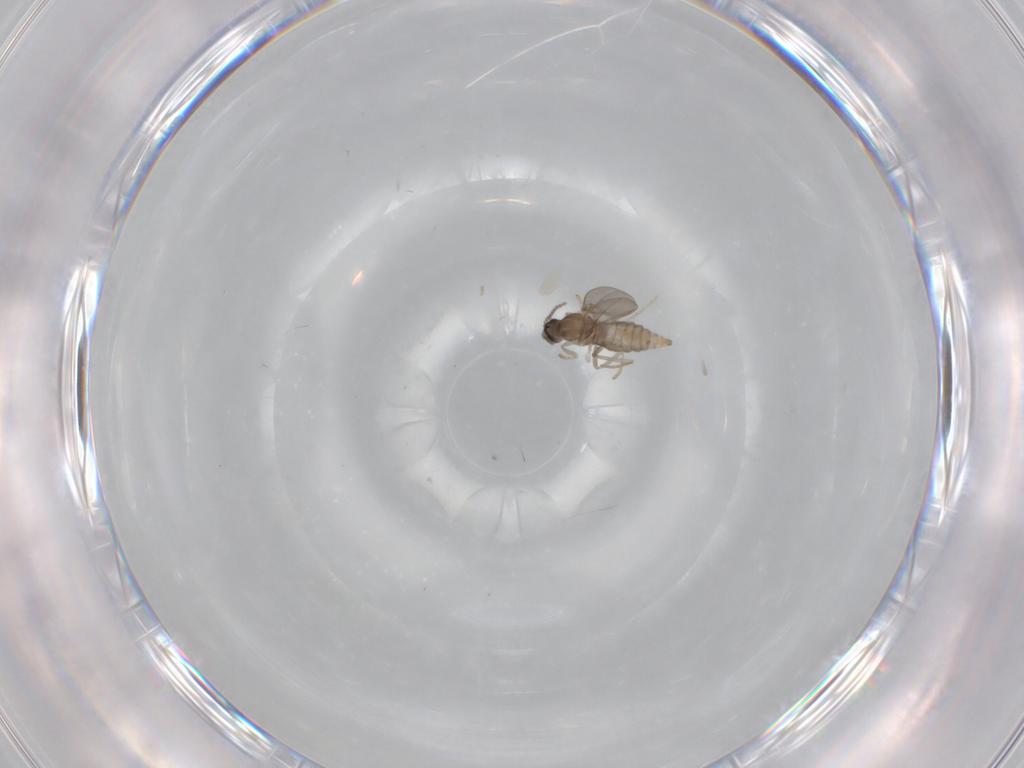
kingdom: Animalia
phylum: Arthropoda
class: Insecta
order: Diptera
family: Cecidomyiidae
